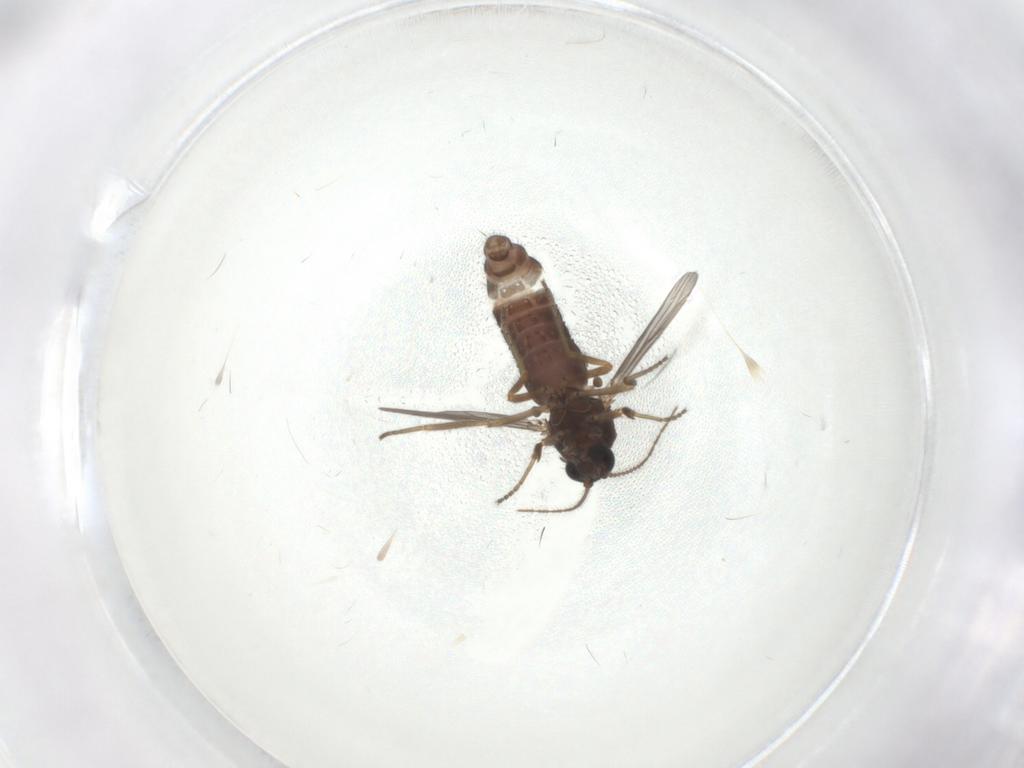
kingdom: Animalia
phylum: Arthropoda
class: Insecta
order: Diptera
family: Ceratopogonidae
